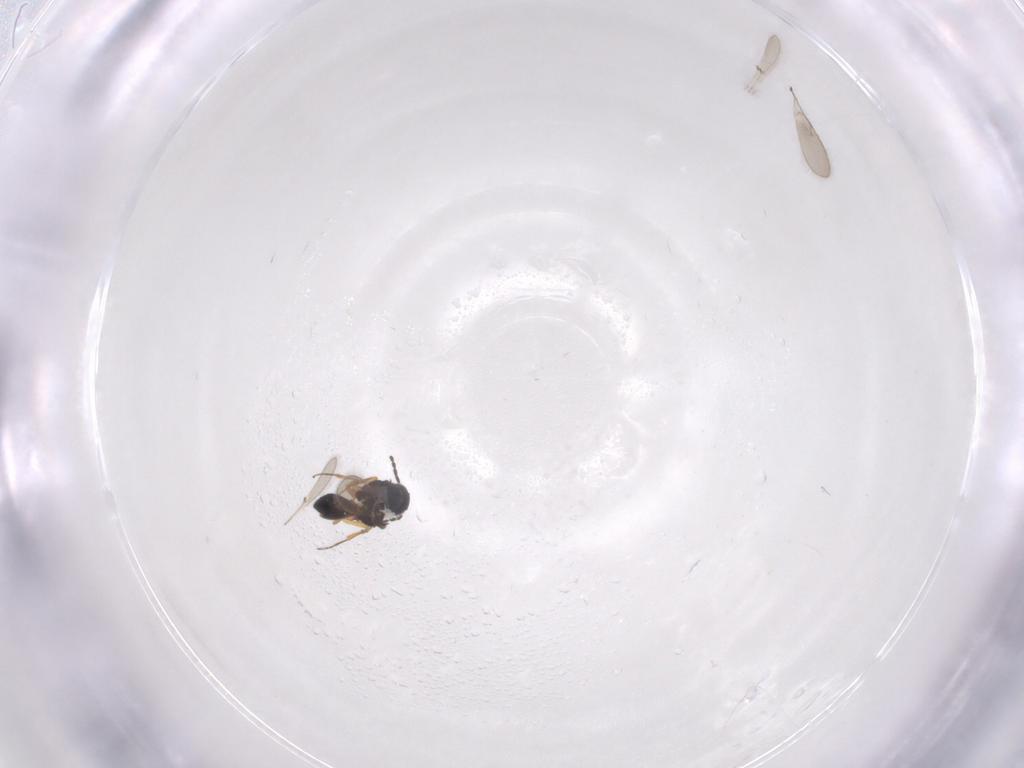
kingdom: Animalia
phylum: Arthropoda
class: Insecta
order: Hymenoptera
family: Scelionidae
